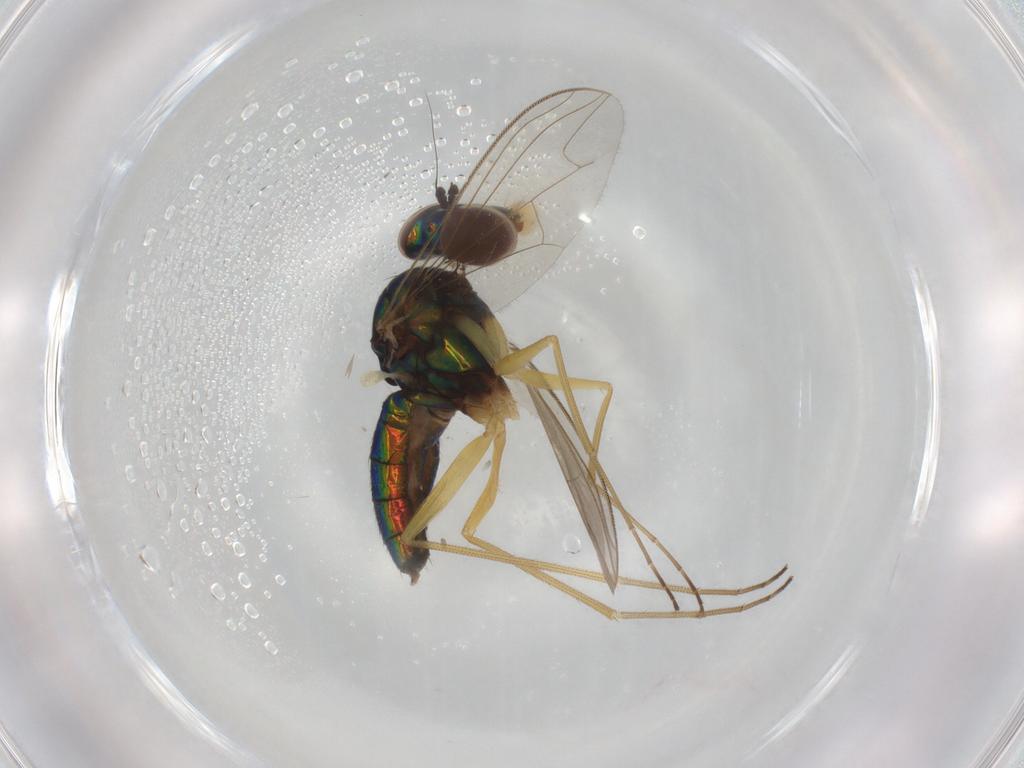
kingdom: Animalia
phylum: Arthropoda
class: Insecta
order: Diptera
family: Dolichopodidae
